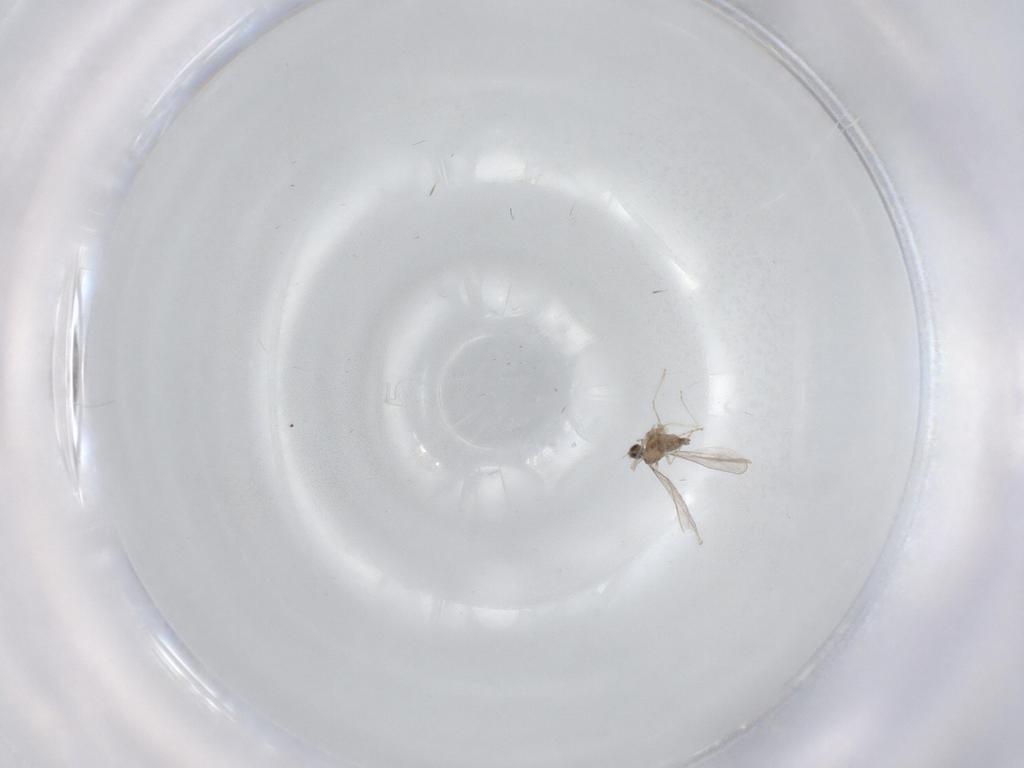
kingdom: Animalia
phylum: Arthropoda
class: Insecta
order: Diptera
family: Cecidomyiidae
